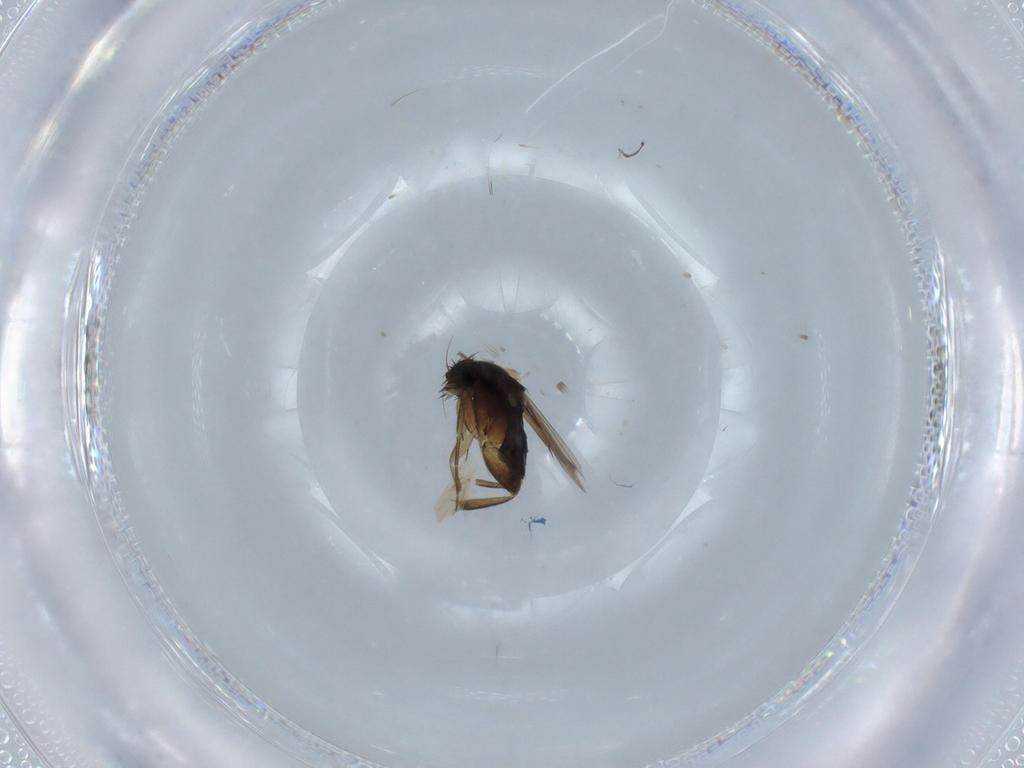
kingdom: Animalia
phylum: Arthropoda
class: Insecta
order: Diptera
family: Phoridae
